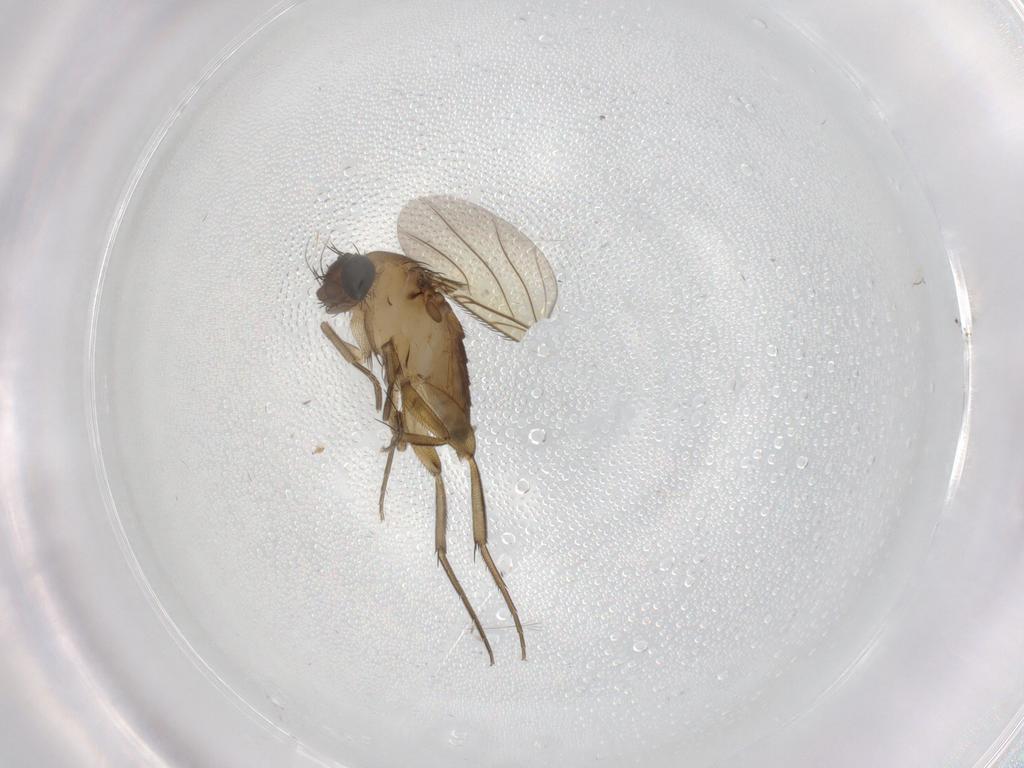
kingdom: Animalia
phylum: Arthropoda
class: Insecta
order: Diptera
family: Phoridae
